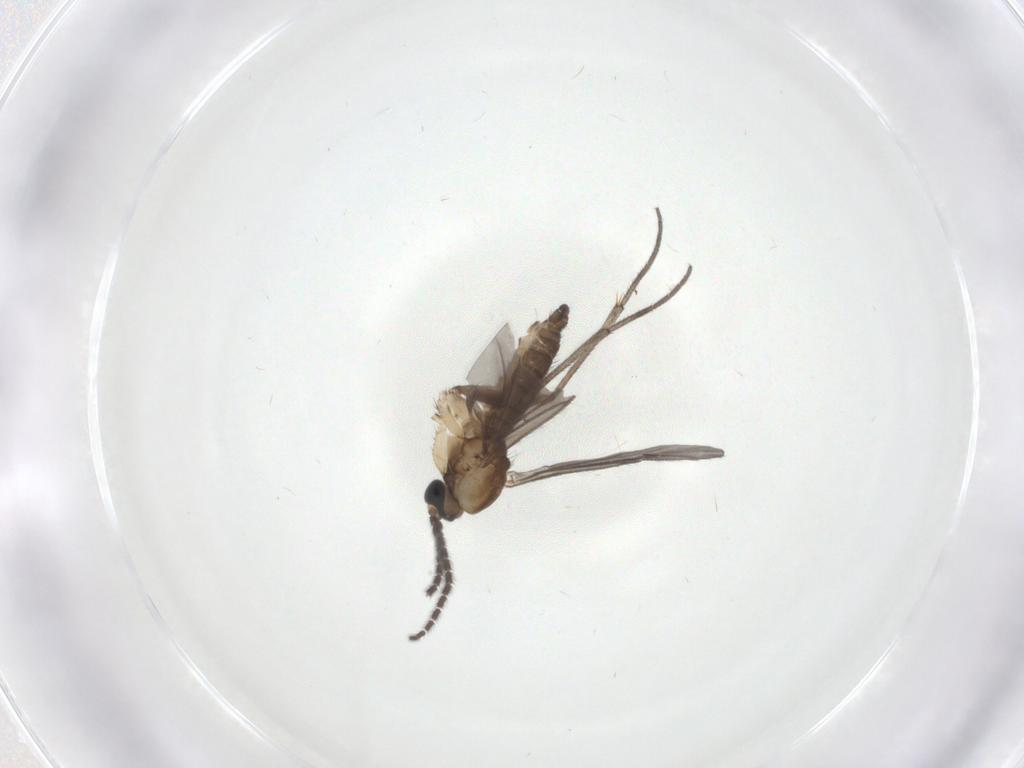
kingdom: Animalia
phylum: Arthropoda
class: Insecta
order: Diptera
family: Sciaridae
